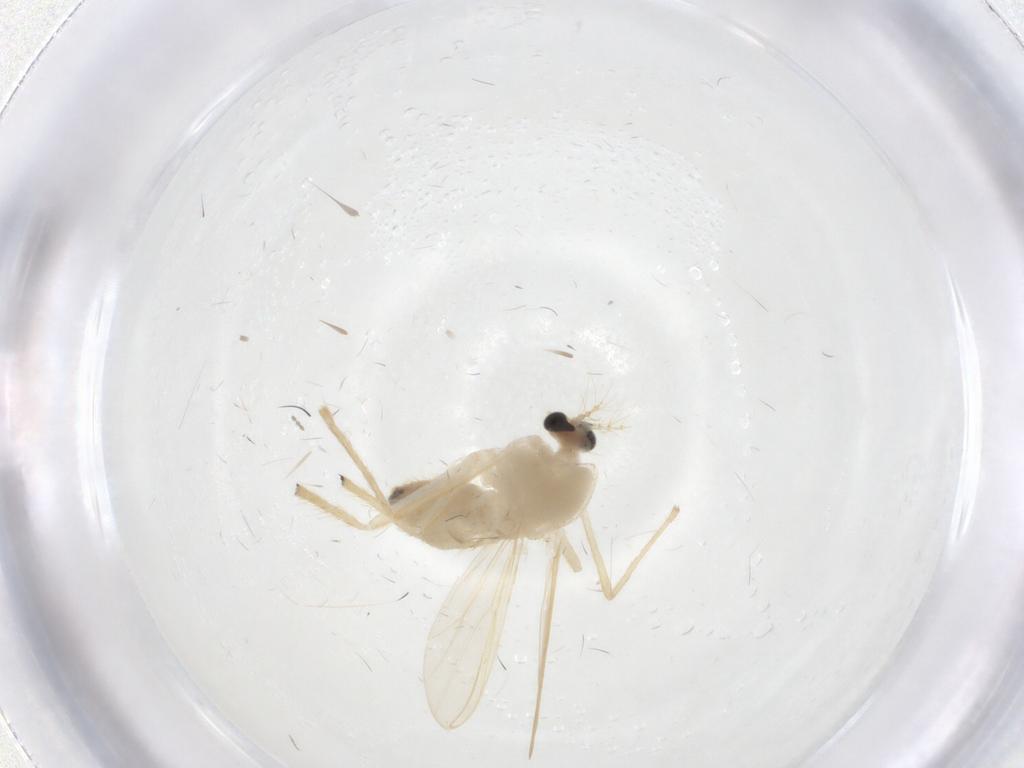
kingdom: Animalia
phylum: Arthropoda
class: Insecta
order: Diptera
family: Chironomidae
